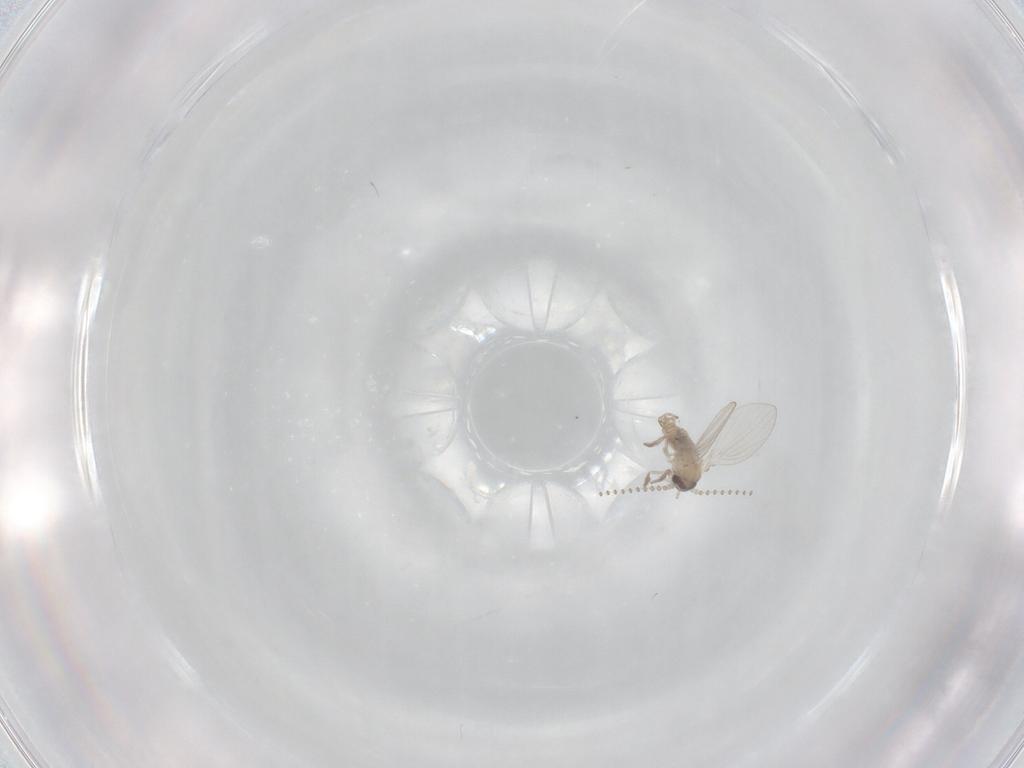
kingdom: Animalia
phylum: Arthropoda
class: Insecta
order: Diptera
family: Psychodidae
